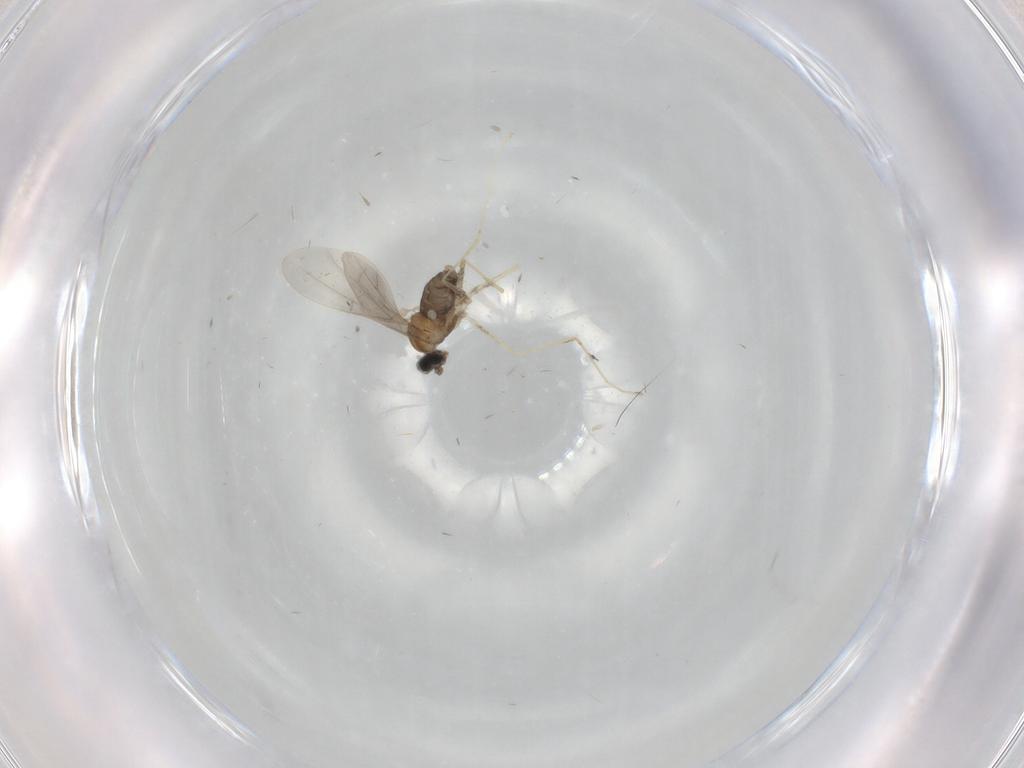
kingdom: Animalia
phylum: Arthropoda
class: Insecta
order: Diptera
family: Cecidomyiidae
